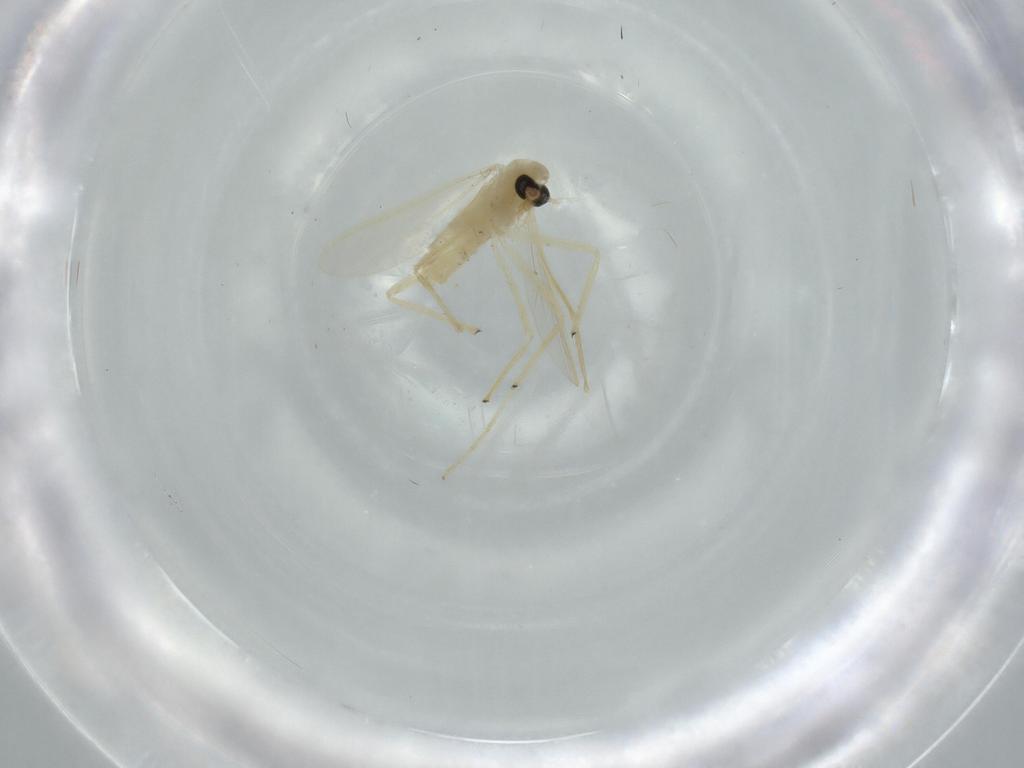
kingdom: Animalia
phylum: Arthropoda
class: Insecta
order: Diptera
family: Chironomidae
